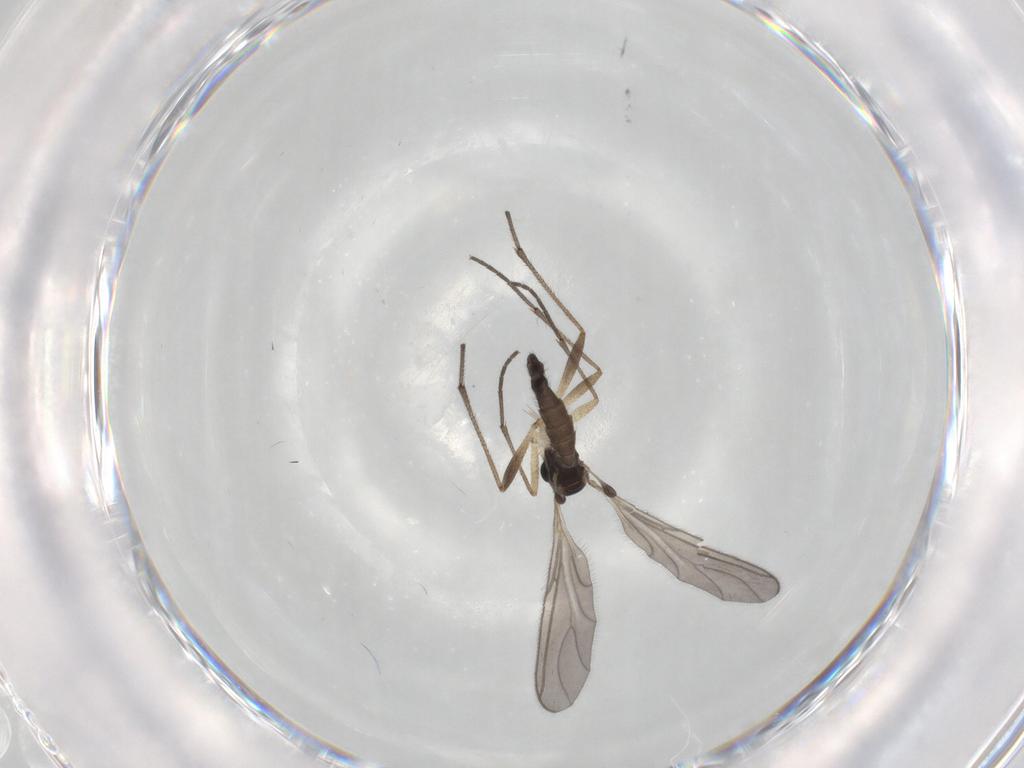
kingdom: Animalia
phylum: Arthropoda
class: Insecta
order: Diptera
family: Sciaridae
